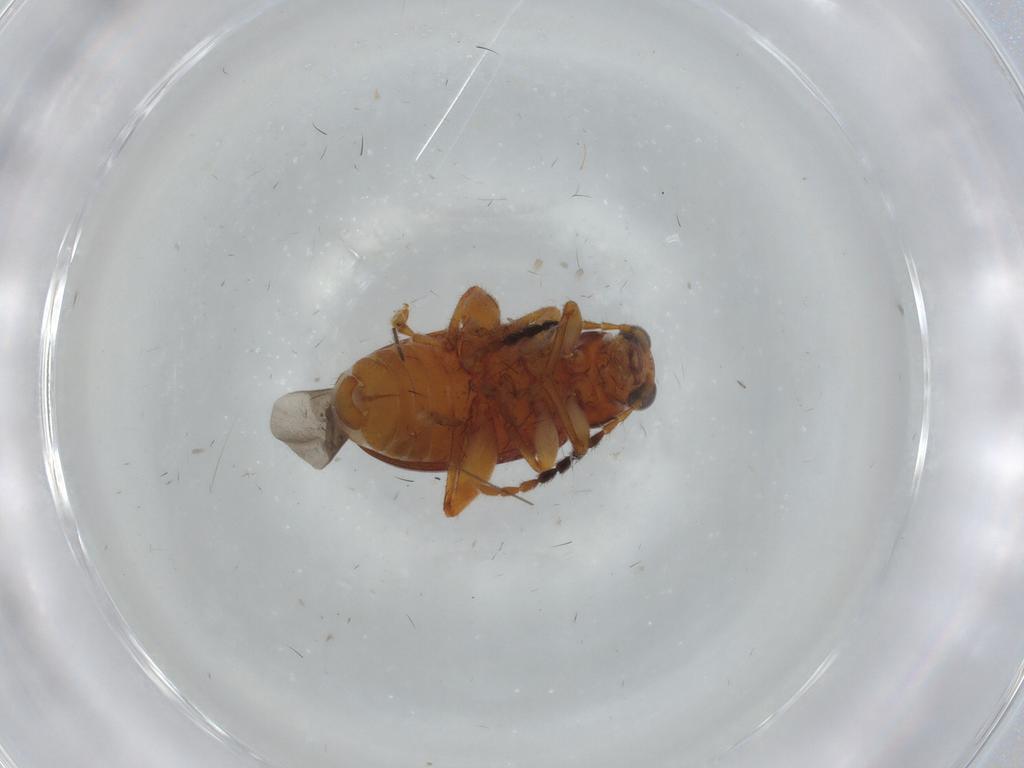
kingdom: Animalia
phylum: Arthropoda
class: Insecta
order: Coleoptera
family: Chrysomelidae
